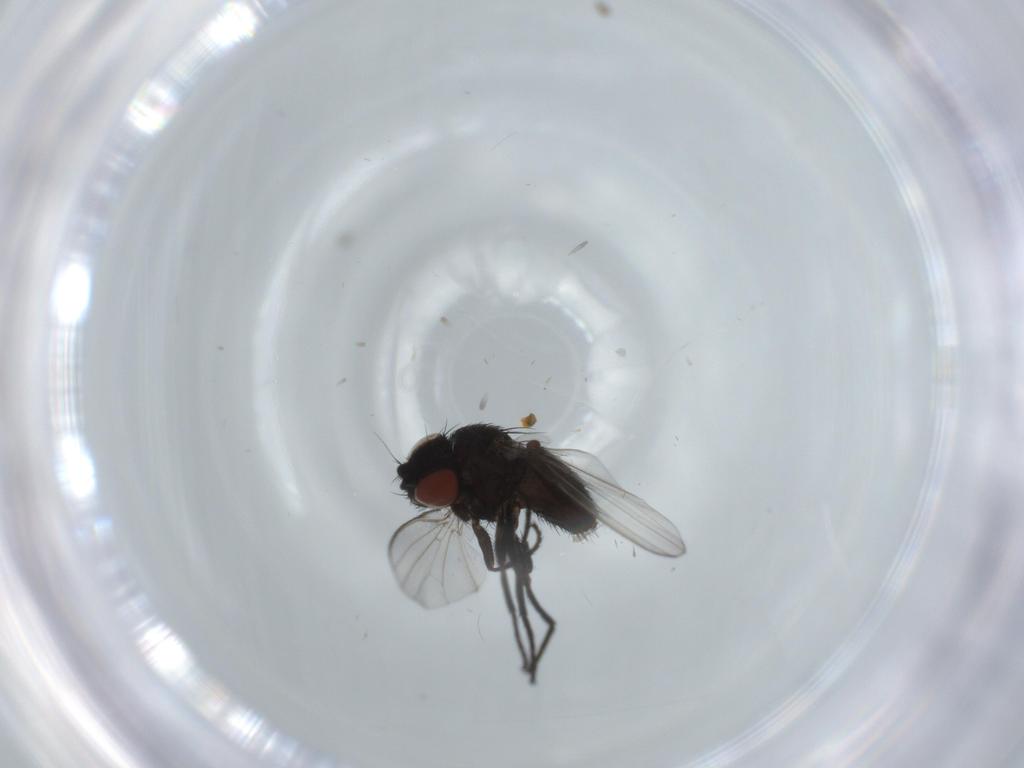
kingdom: Animalia
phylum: Arthropoda
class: Insecta
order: Diptera
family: Milichiidae
